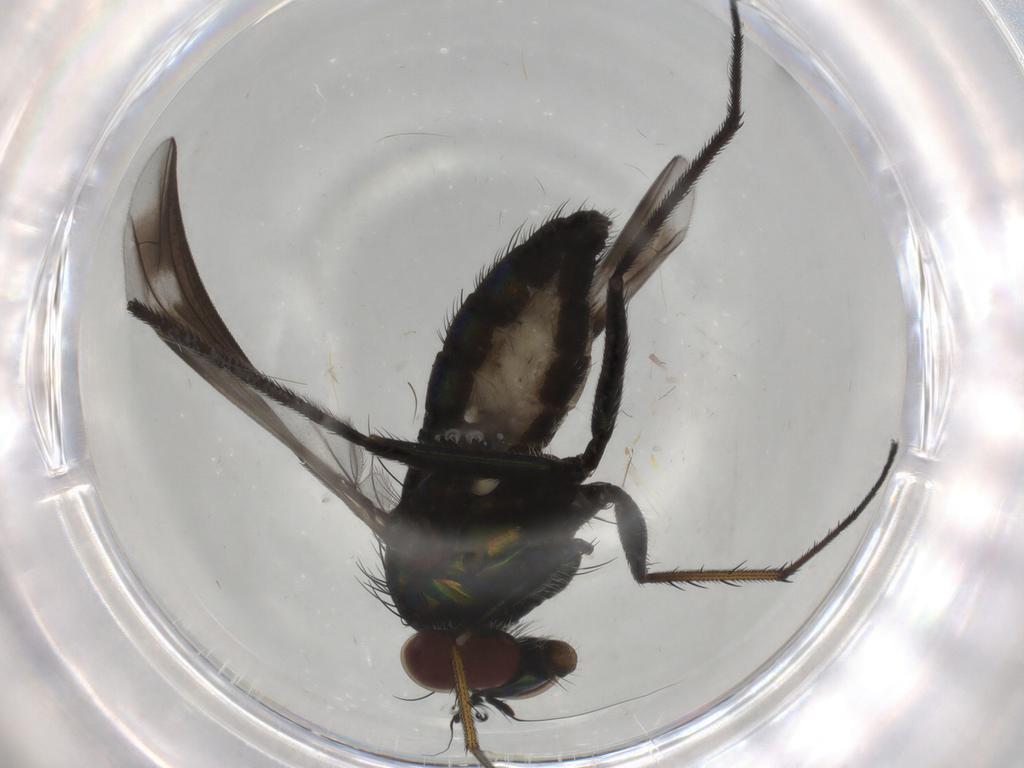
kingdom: Animalia
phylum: Arthropoda
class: Insecta
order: Diptera
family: Dolichopodidae
